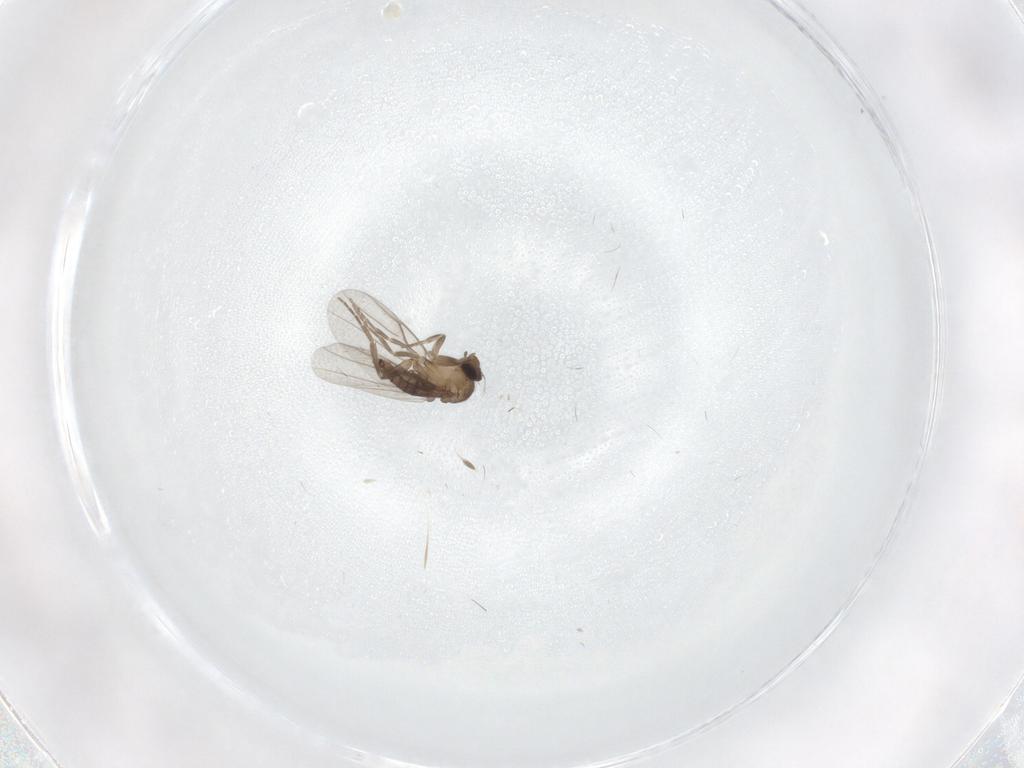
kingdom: Animalia
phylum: Arthropoda
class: Insecta
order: Diptera
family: Phoridae
